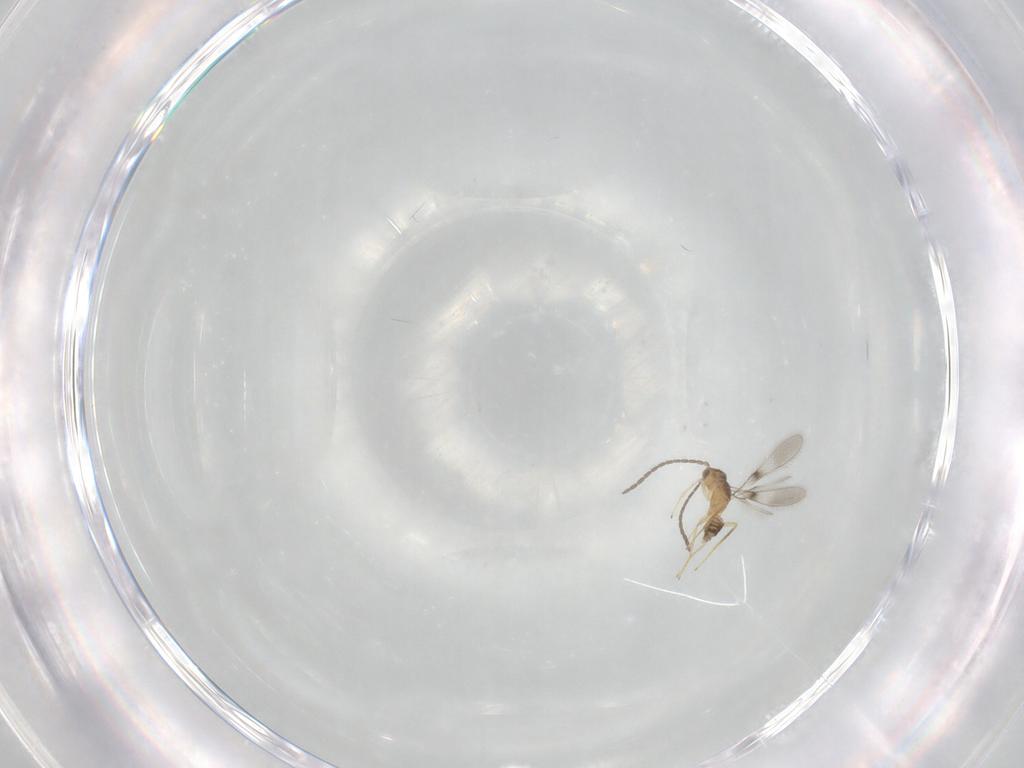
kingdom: Animalia
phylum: Arthropoda
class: Insecta
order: Hymenoptera
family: Mymaridae
